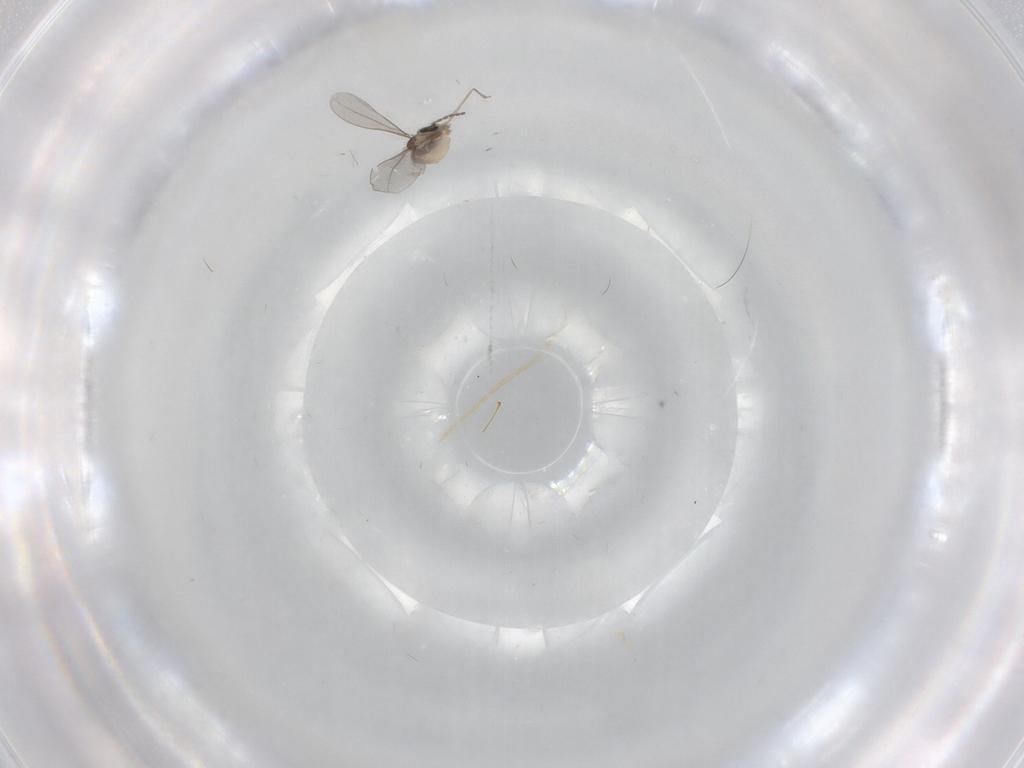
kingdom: Animalia
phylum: Arthropoda
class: Insecta
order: Diptera
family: Cecidomyiidae
